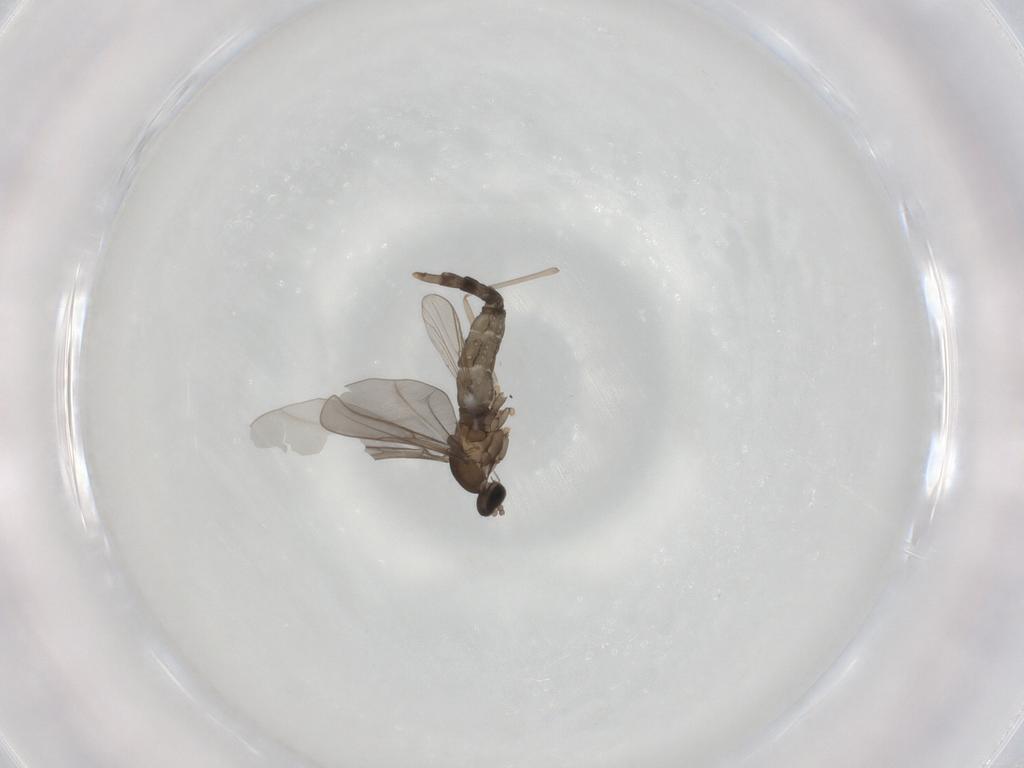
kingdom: Animalia
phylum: Arthropoda
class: Insecta
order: Diptera
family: Cecidomyiidae
